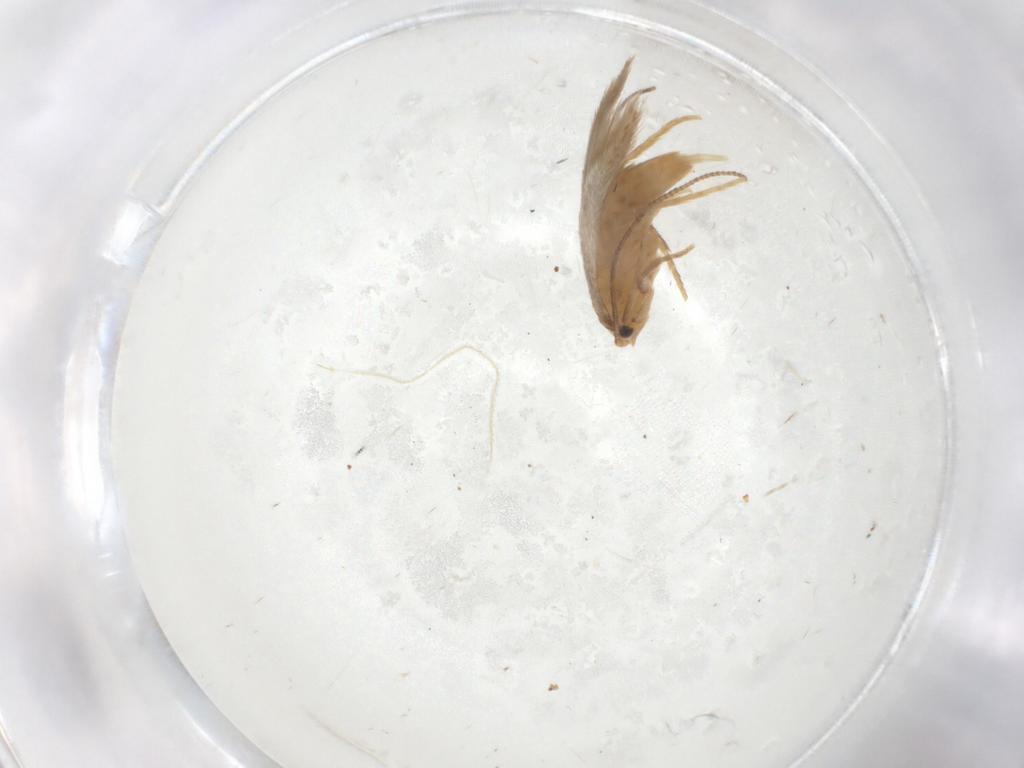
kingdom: Animalia
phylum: Arthropoda
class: Insecta
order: Lepidoptera
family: Tineidae
